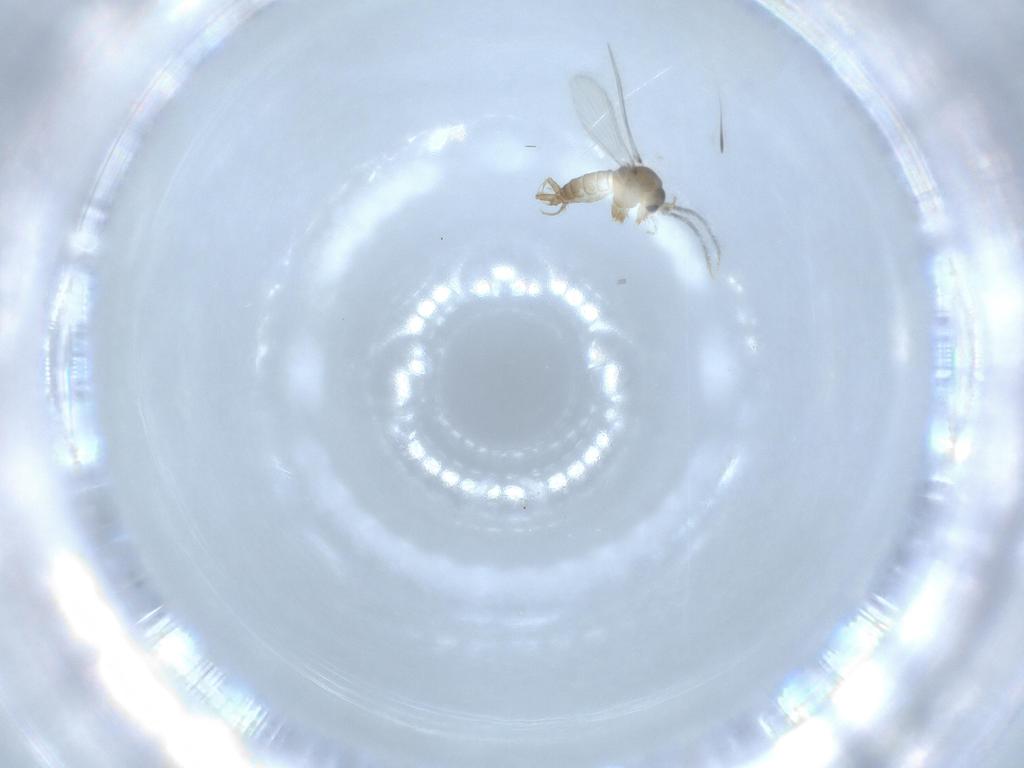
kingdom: Animalia
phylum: Arthropoda
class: Insecta
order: Diptera
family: Psychodidae
